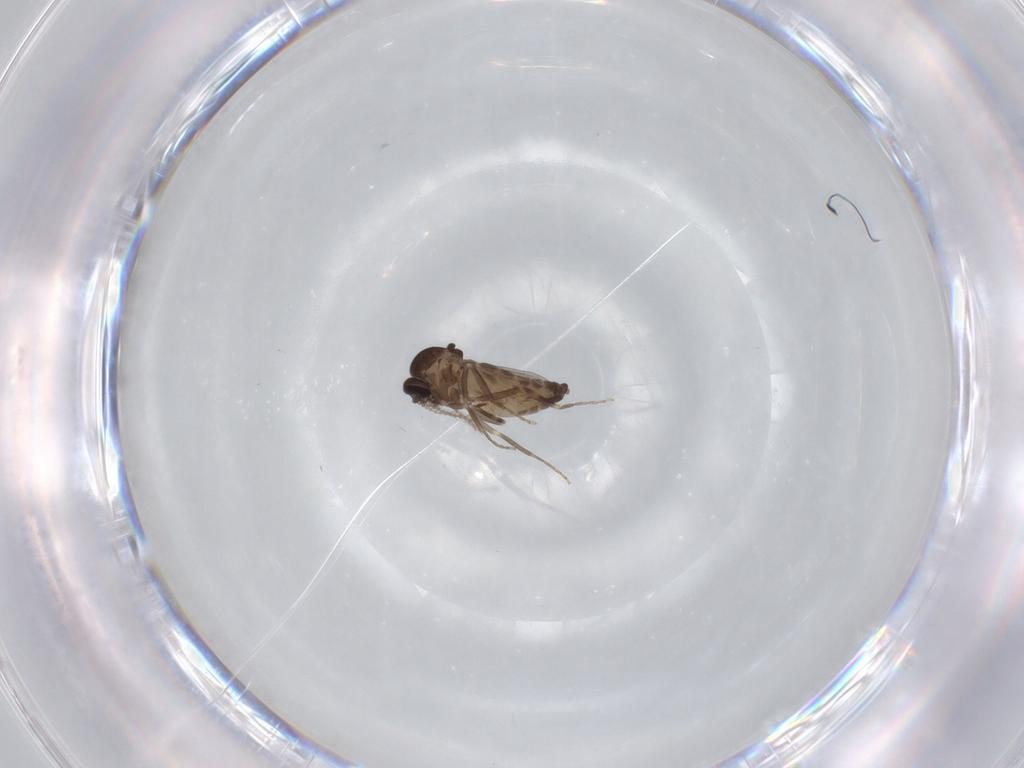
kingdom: Animalia
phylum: Arthropoda
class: Insecta
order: Diptera
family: Ceratopogonidae
